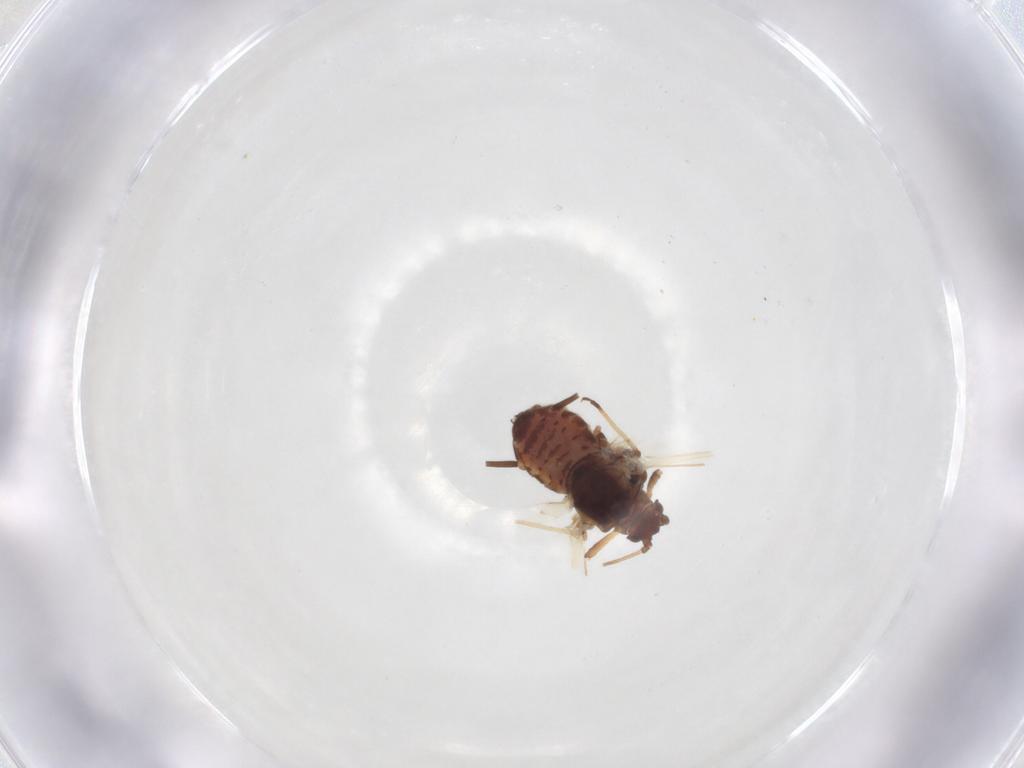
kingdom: Animalia
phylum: Arthropoda
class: Insecta
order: Hemiptera
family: Aphididae
